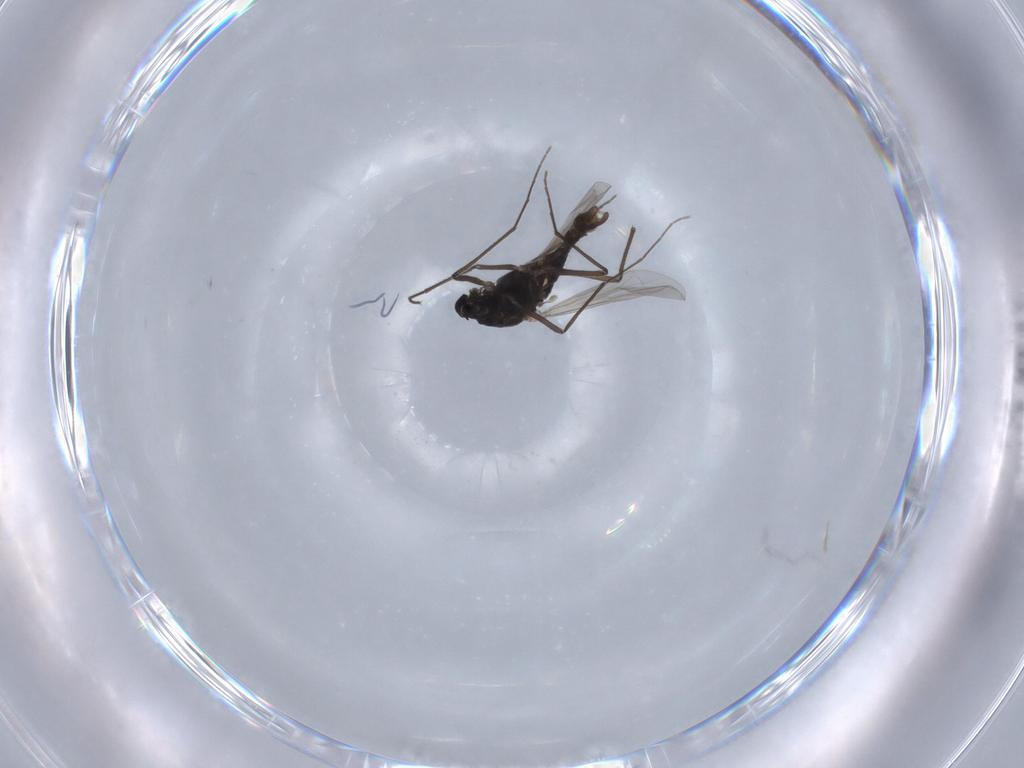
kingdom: Animalia
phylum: Arthropoda
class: Insecta
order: Diptera
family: Chironomidae
